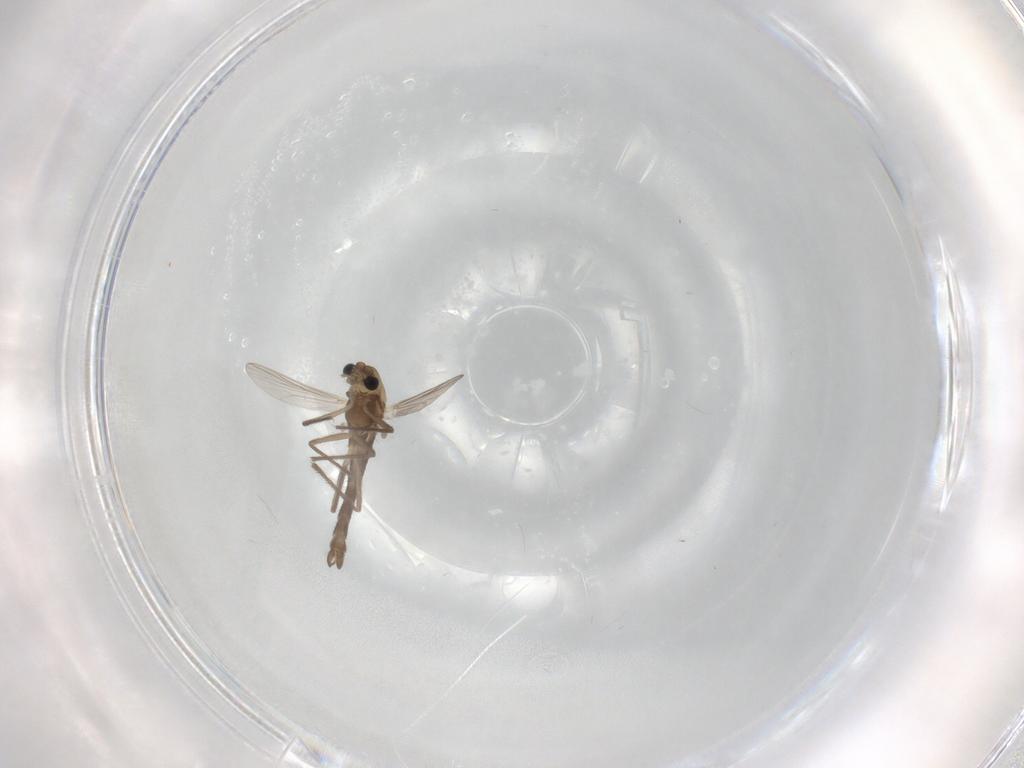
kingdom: Animalia
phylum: Arthropoda
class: Insecta
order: Diptera
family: Chironomidae
